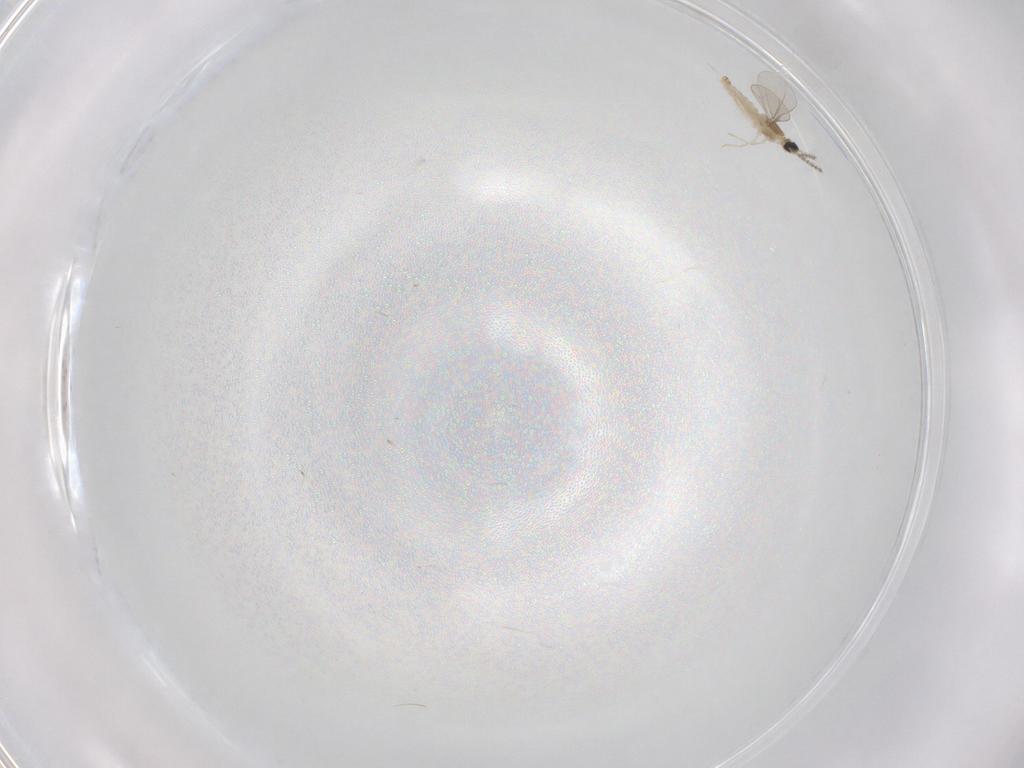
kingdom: Animalia
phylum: Arthropoda
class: Insecta
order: Diptera
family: Cecidomyiidae
